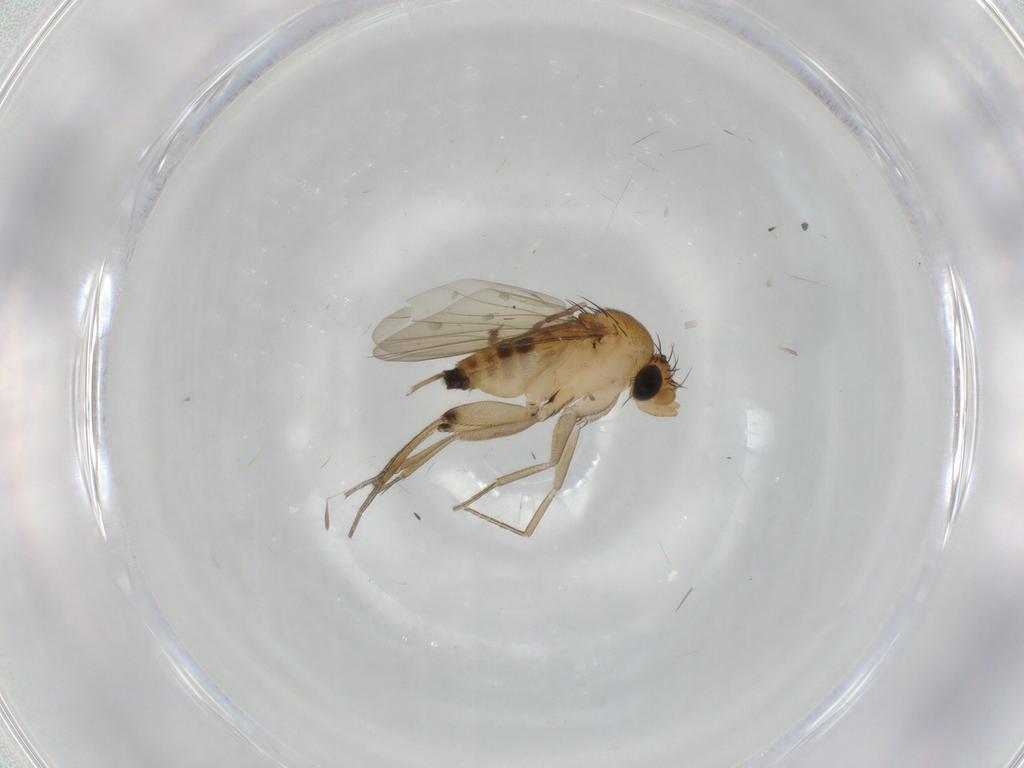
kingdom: Animalia
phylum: Arthropoda
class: Insecta
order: Diptera
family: Phoridae
